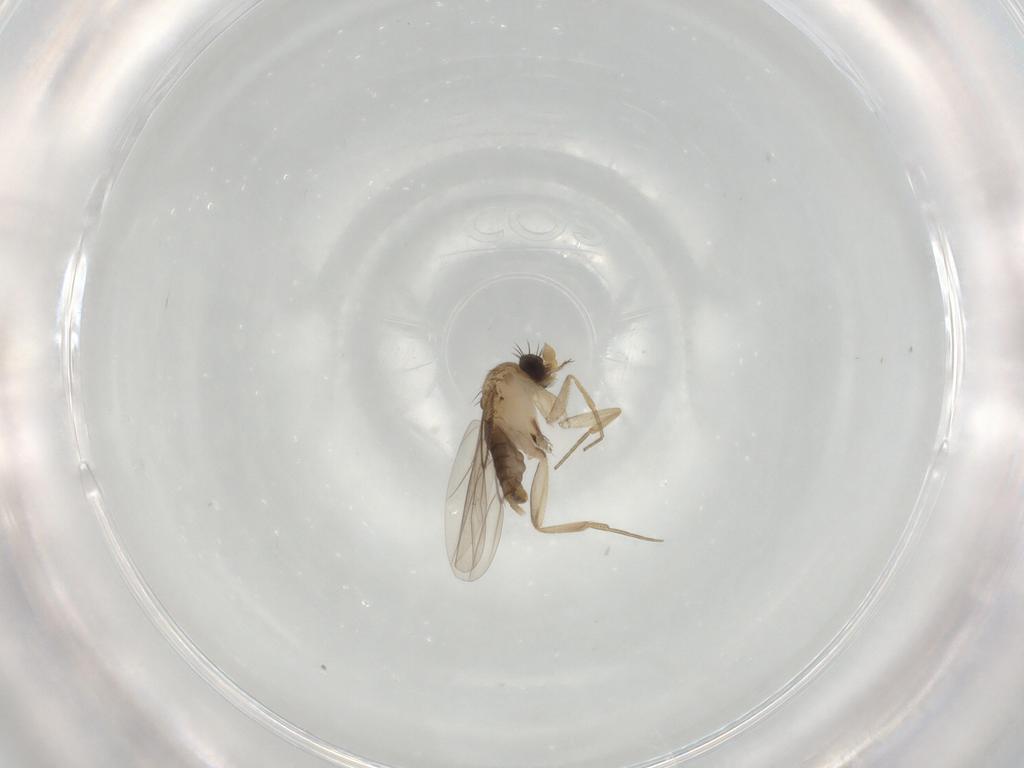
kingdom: Animalia
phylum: Arthropoda
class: Insecta
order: Diptera
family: Phoridae
